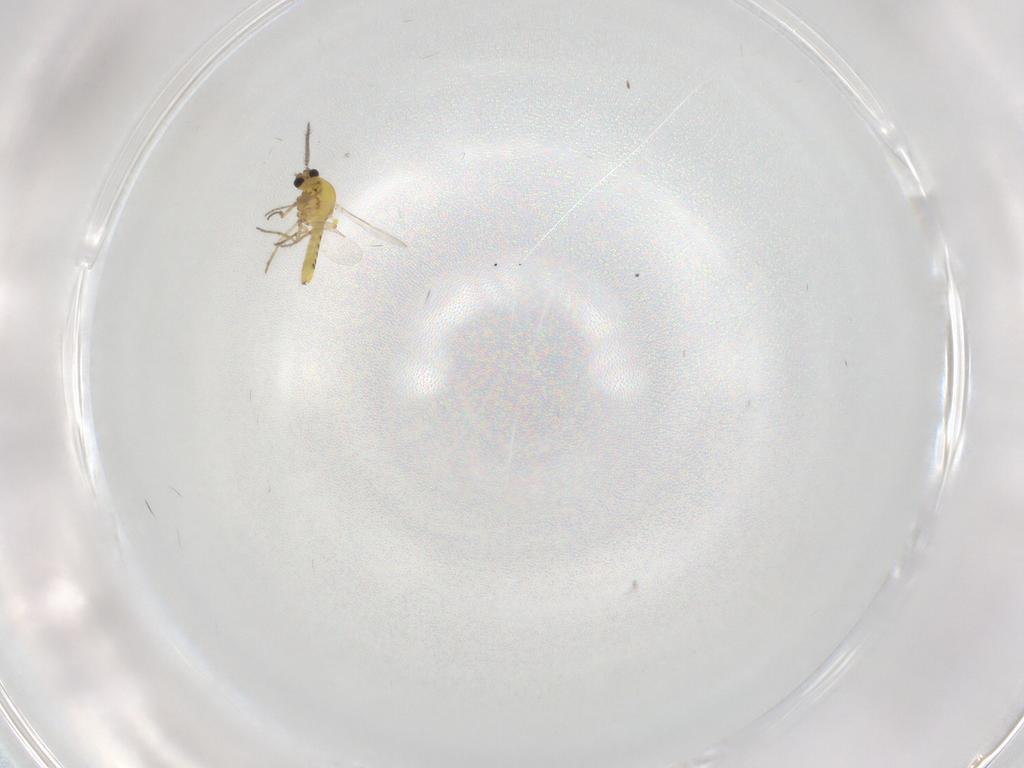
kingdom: Animalia
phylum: Arthropoda
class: Insecta
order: Diptera
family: Ceratopogonidae
